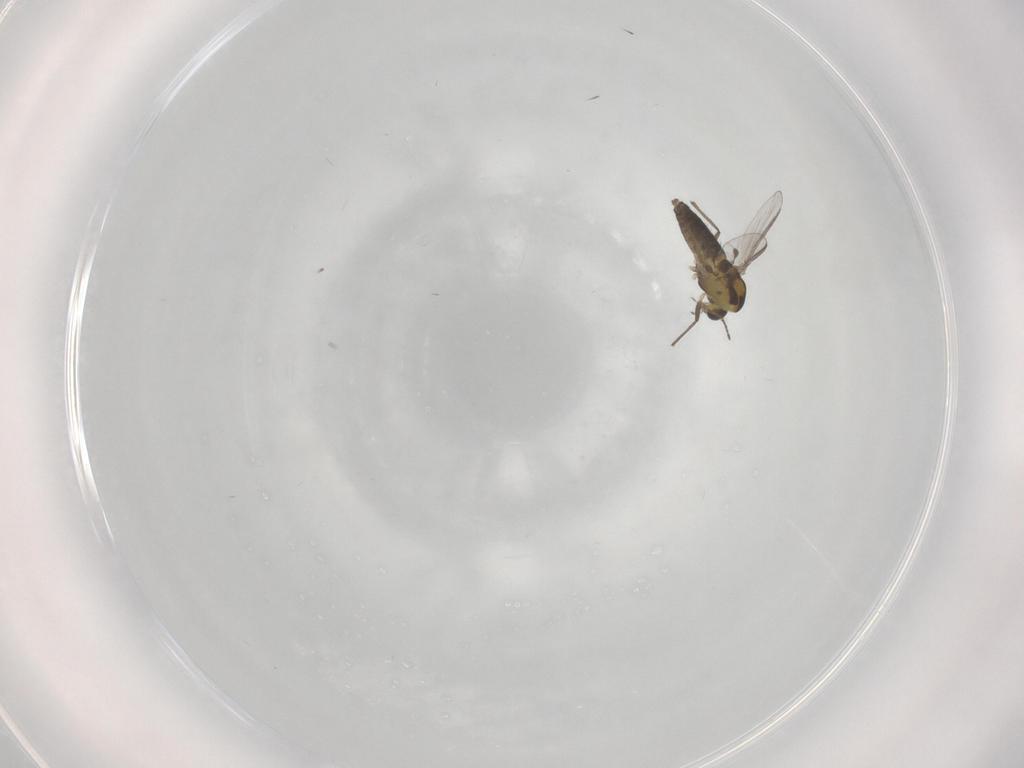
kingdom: Animalia
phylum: Arthropoda
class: Insecta
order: Diptera
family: Chironomidae
